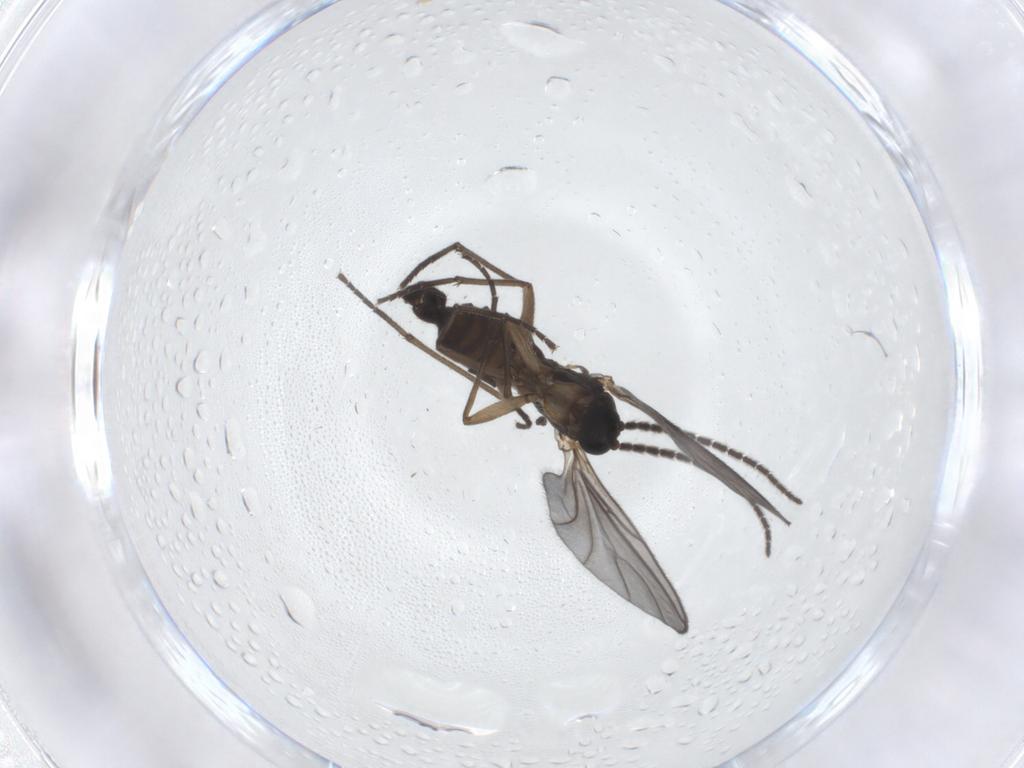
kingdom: Animalia
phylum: Arthropoda
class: Insecta
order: Diptera
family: Sciaridae
